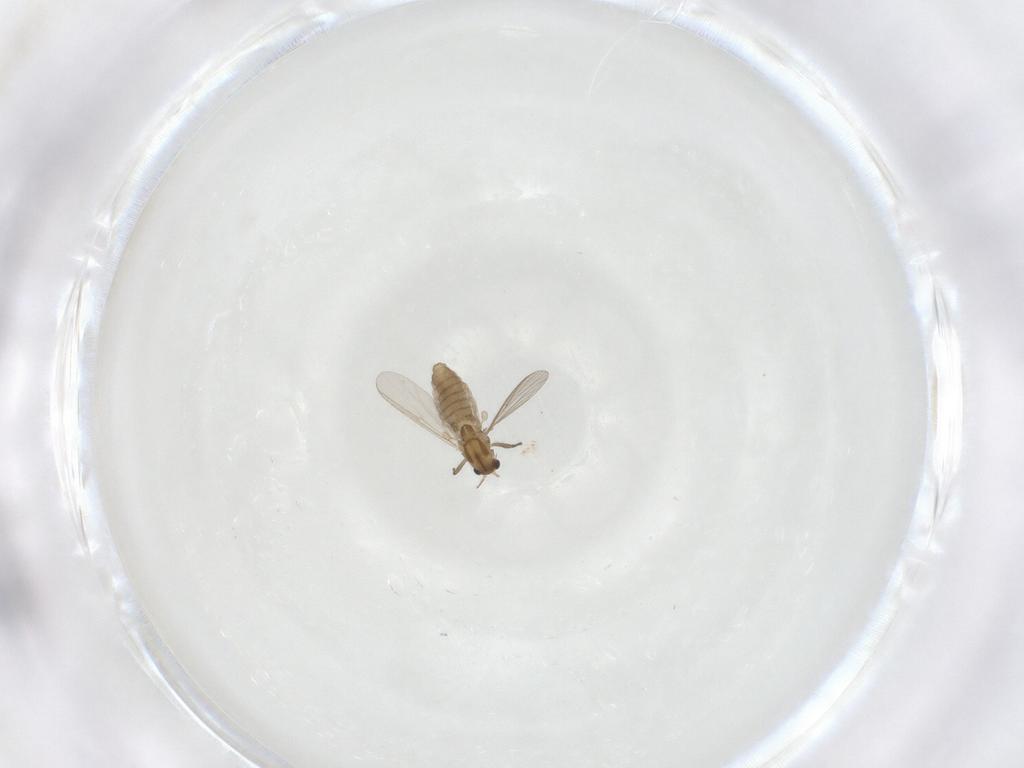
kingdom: Animalia
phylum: Arthropoda
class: Insecta
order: Diptera
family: Chironomidae
